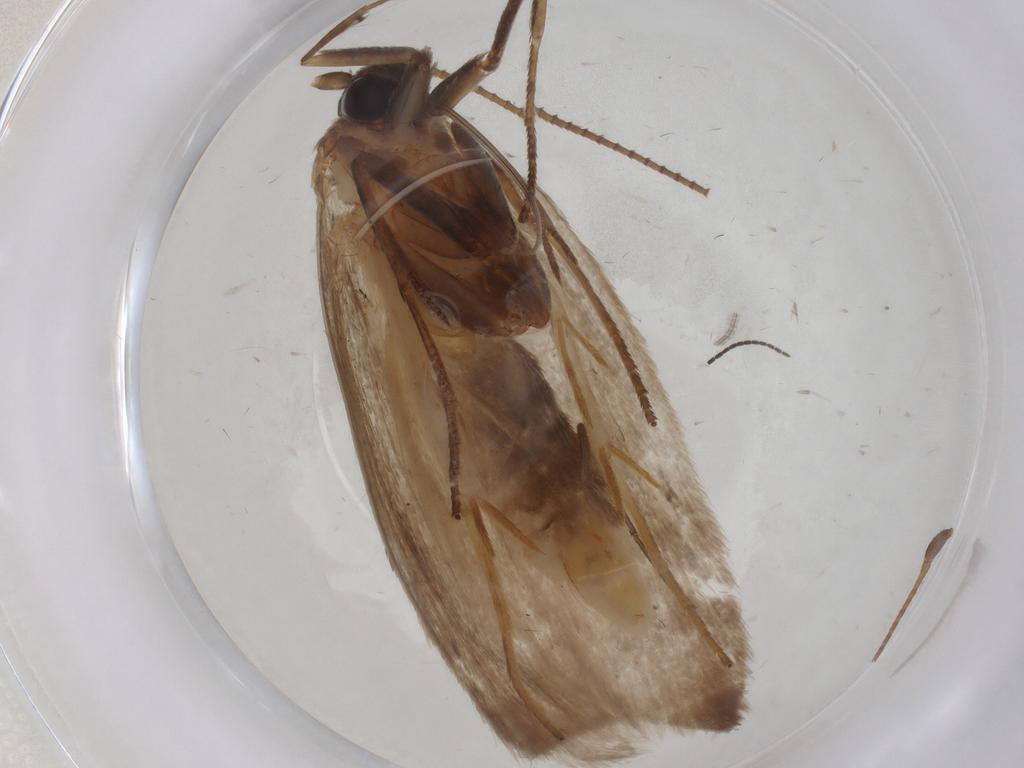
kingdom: Animalia
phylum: Arthropoda
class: Insecta
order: Lepidoptera
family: Roeslerstammiidae
